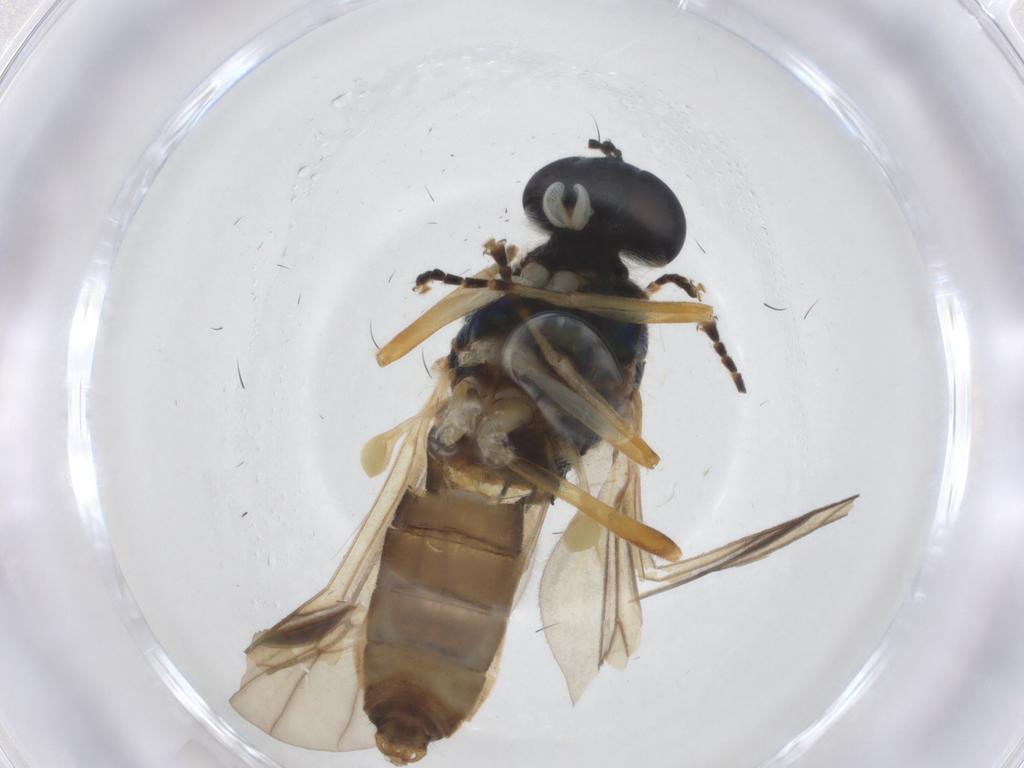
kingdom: Animalia
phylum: Arthropoda
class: Insecta
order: Diptera
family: Stratiomyidae
